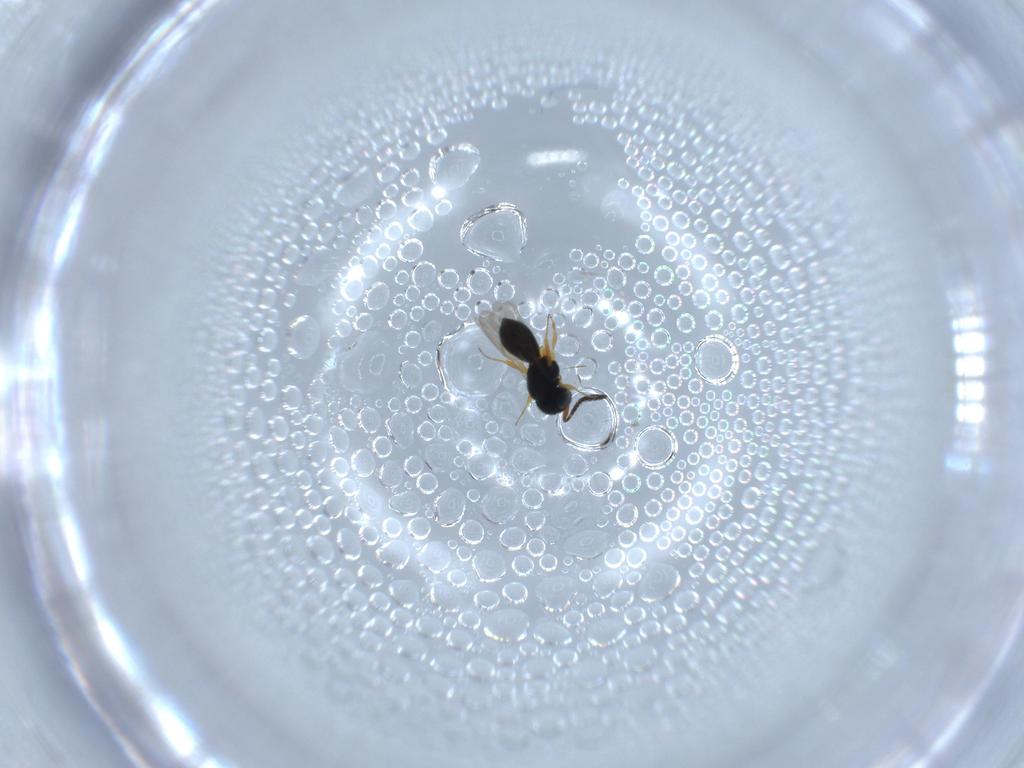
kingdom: Animalia
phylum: Arthropoda
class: Insecta
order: Hymenoptera
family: Scelionidae
